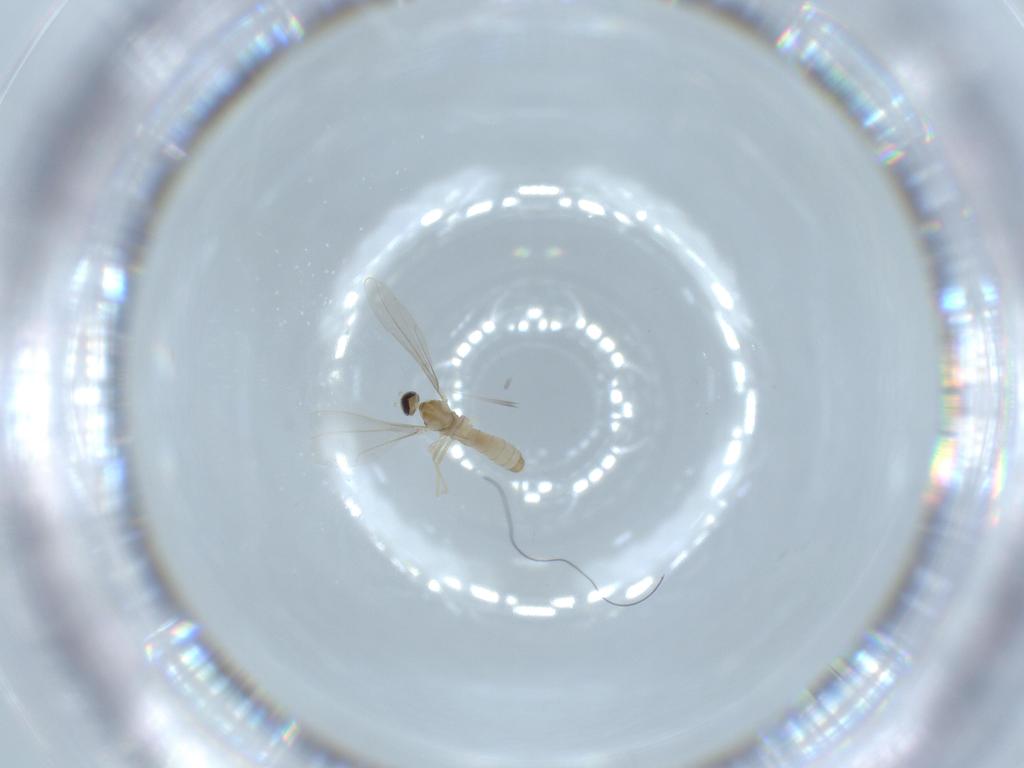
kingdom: Animalia
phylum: Arthropoda
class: Insecta
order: Diptera
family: Cecidomyiidae
